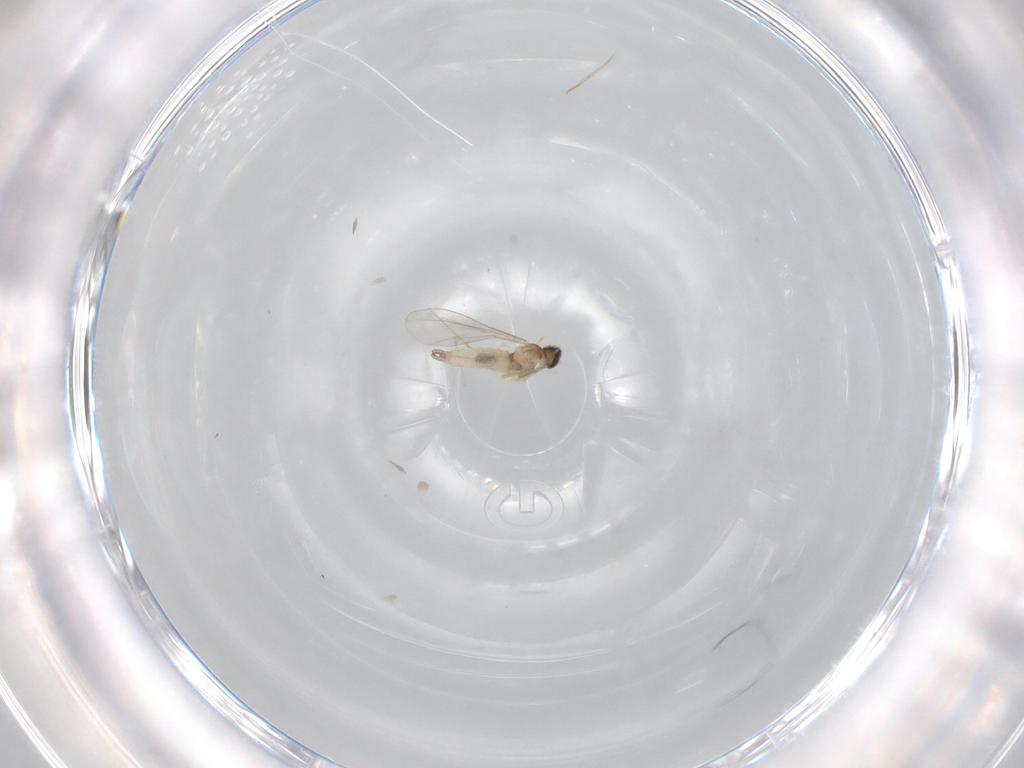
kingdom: Animalia
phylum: Arthropoda
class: Insecta
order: Diptera
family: Cecidomyiidae
